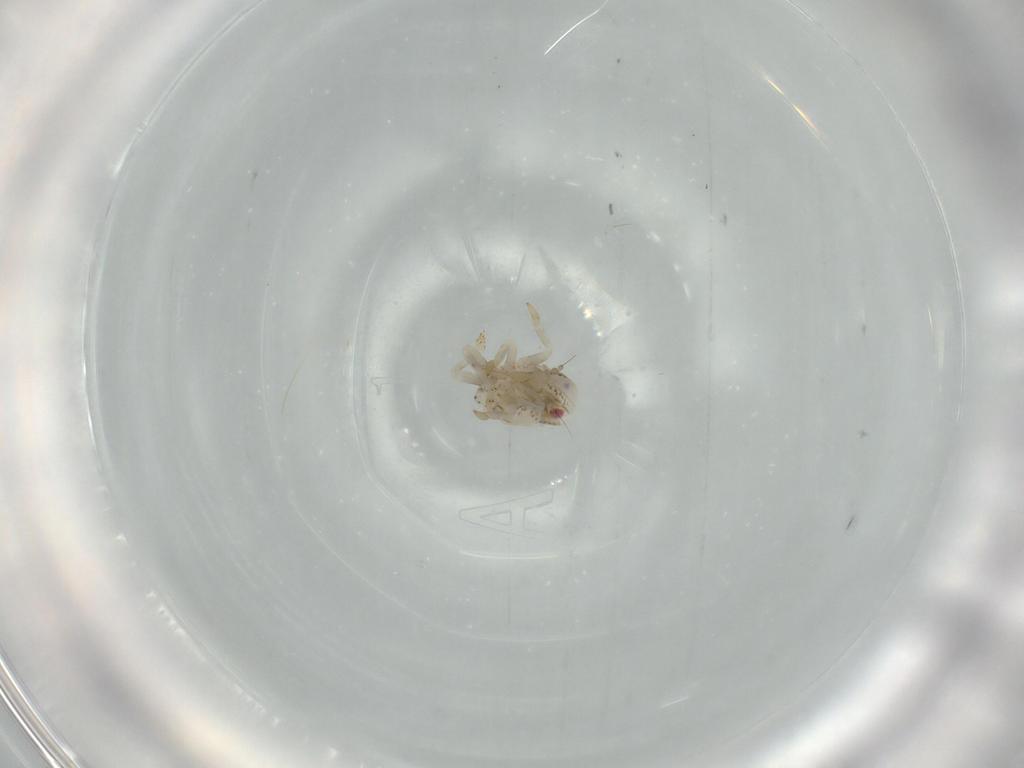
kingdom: Animalia
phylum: Arthropoda
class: Insecta
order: Hemiptera
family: Acanaloniidae
